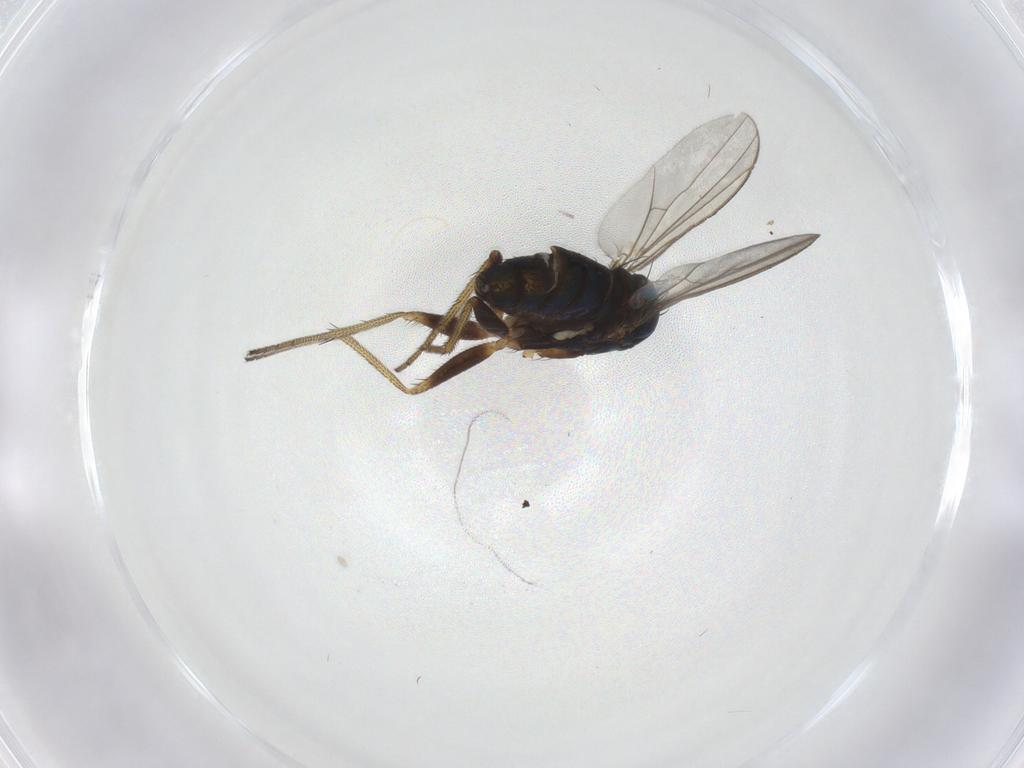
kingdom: Animalia
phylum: Arthropoda
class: Insecta
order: Diptera
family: Dolichopodidae
